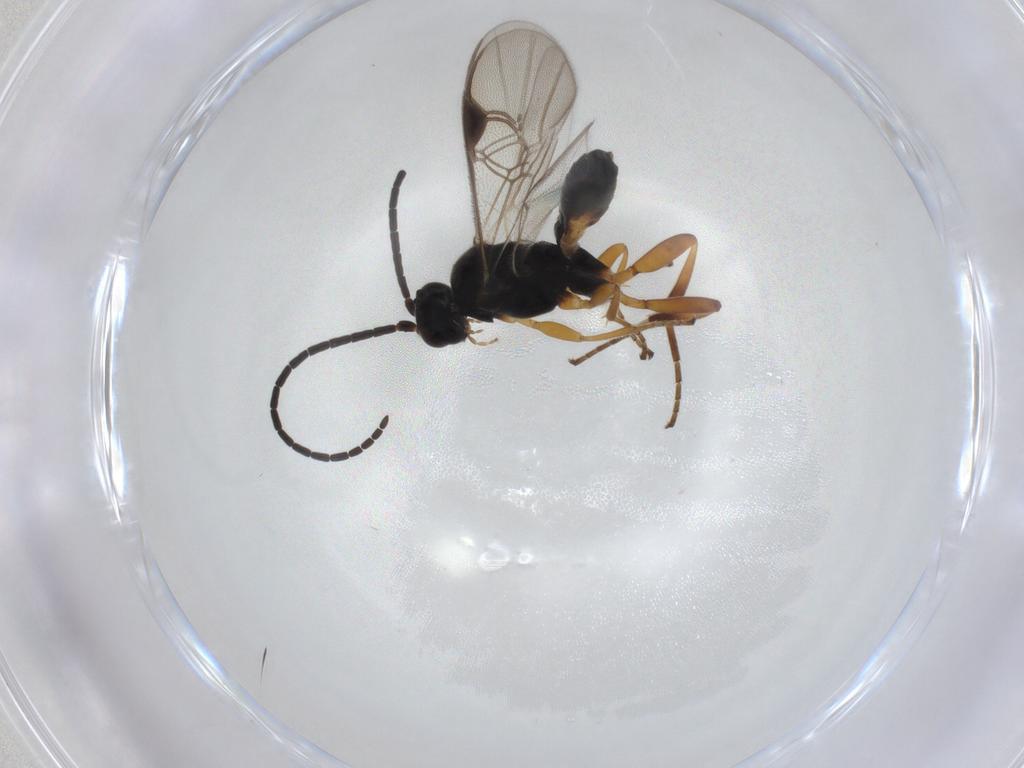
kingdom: Animalia
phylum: Arthropoda
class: Insecta
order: Hymenoptera
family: Braconidae
